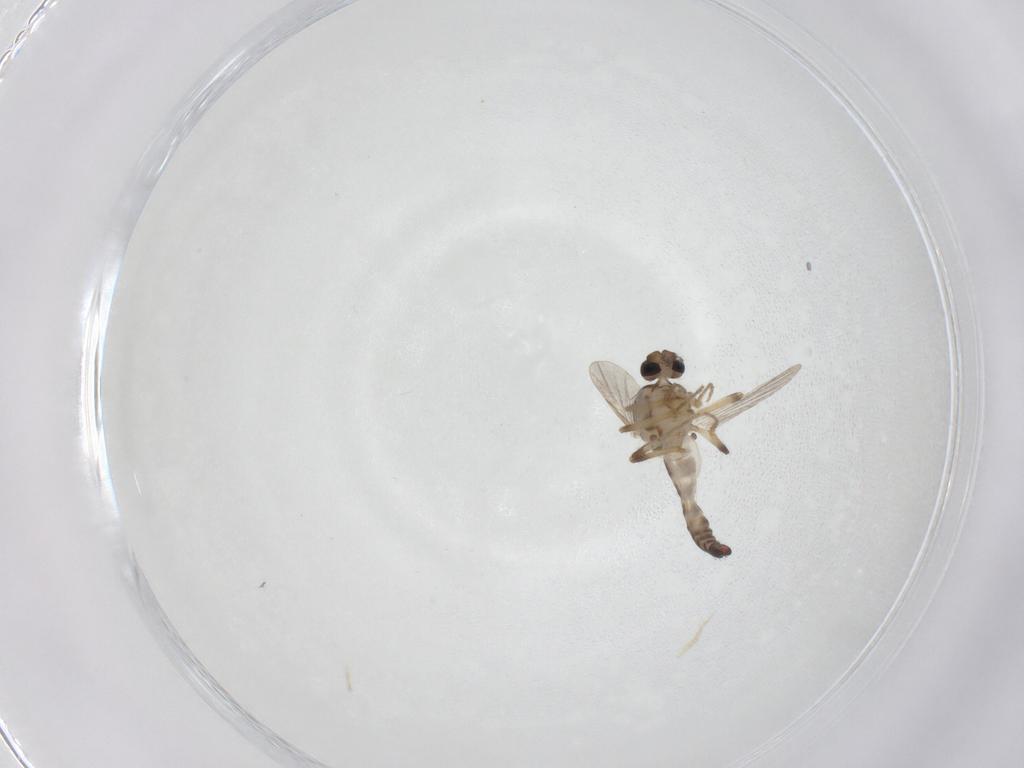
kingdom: Animalia
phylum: Arthropoda
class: Insecta
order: Diptera
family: Ceratopogonidae
